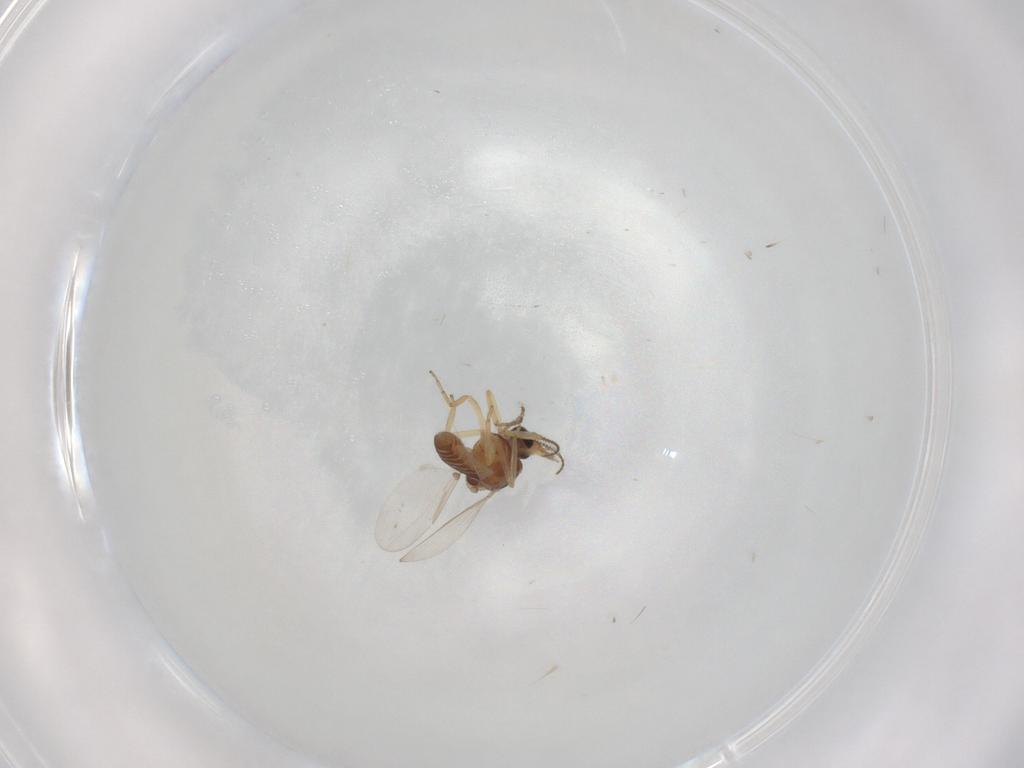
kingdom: Animalia
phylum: Arthropoda
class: Insecta
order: Diptera
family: Ceratopogonidae
